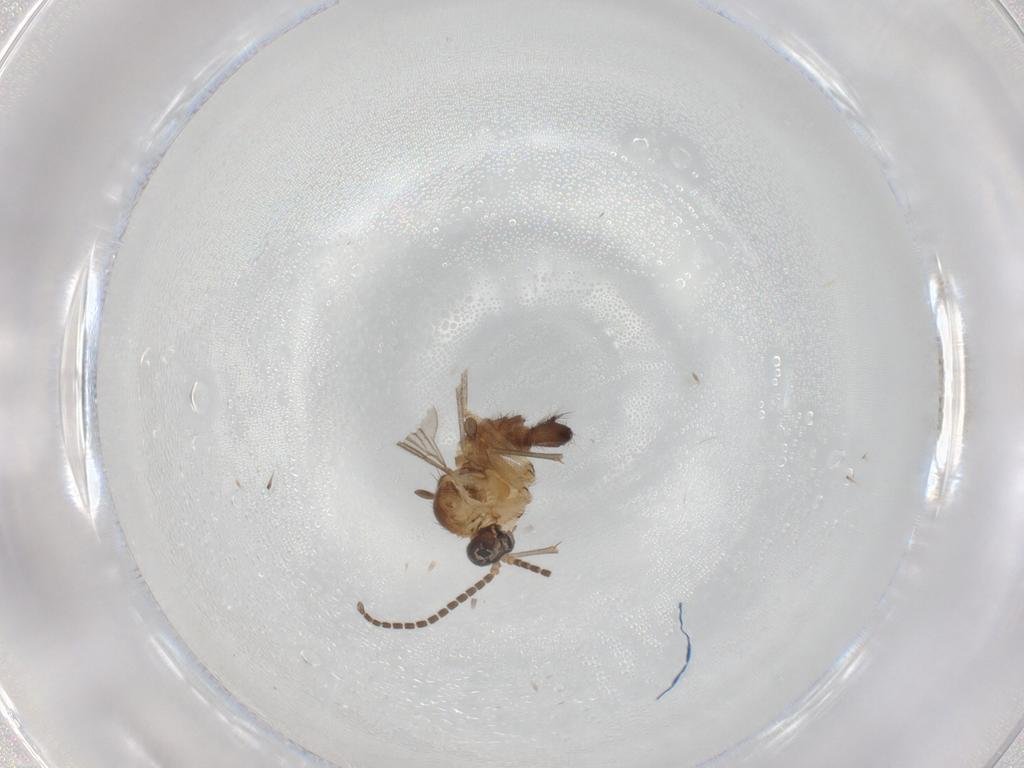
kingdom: Animalia
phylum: Arthropoda
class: Insecta
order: Diptera
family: Sciaridae
